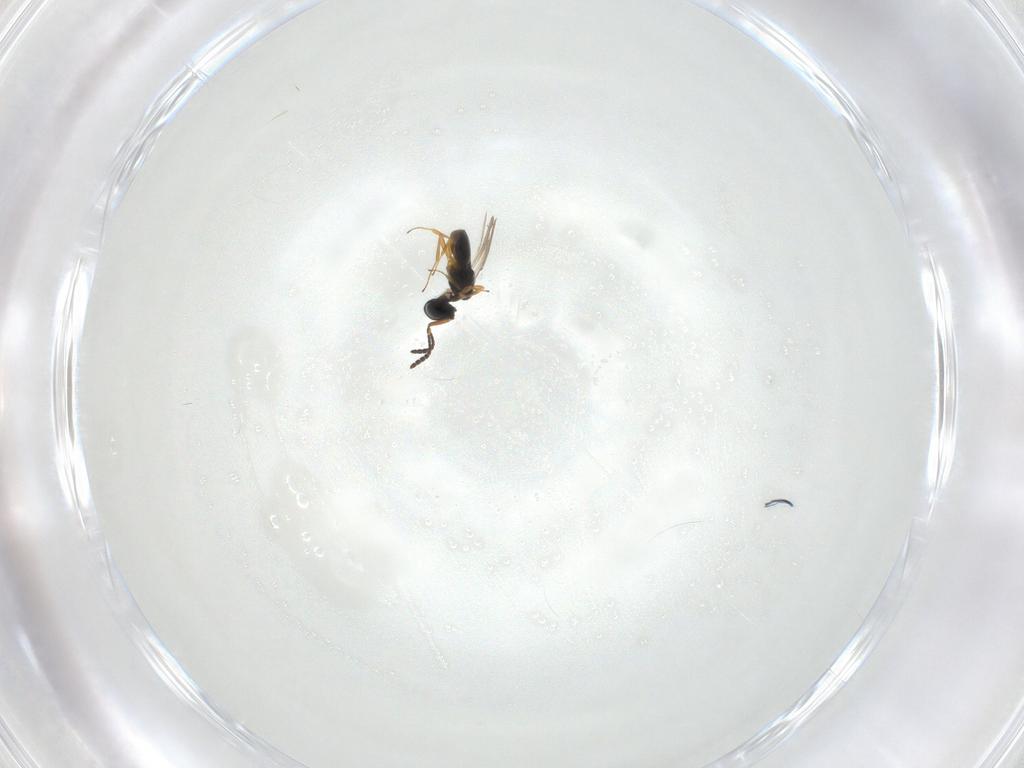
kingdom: Animalia
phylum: Arthropoda
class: Insecta
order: Hymenoptera
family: Scelionidae
